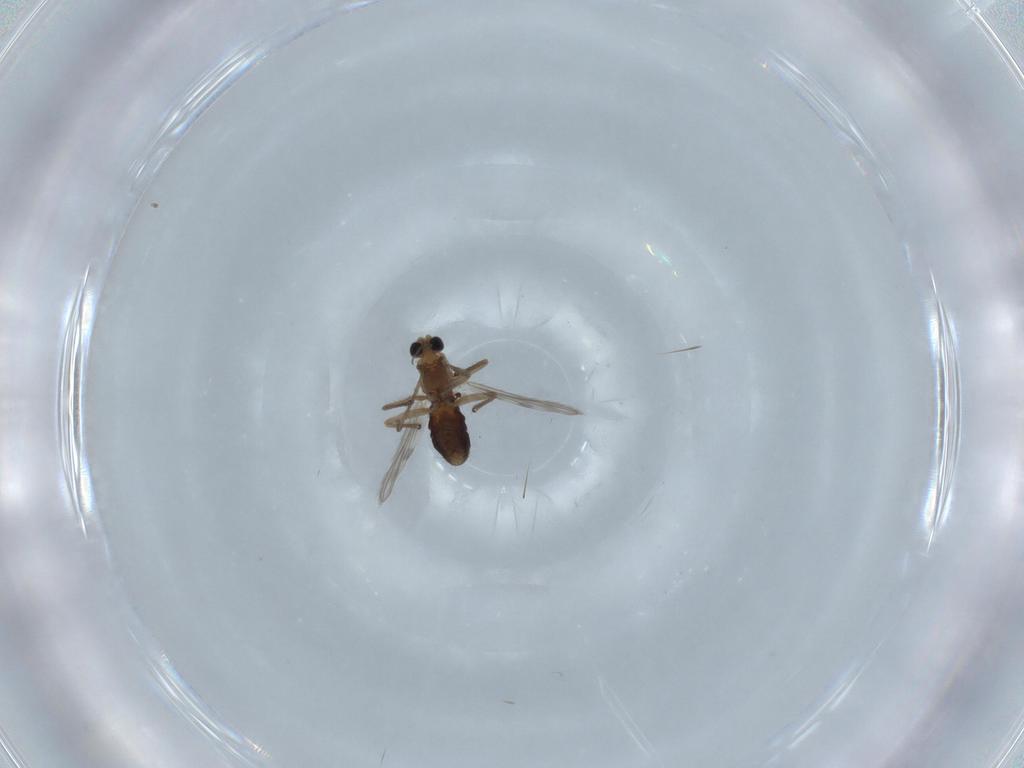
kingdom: Animalia
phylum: Arthropoda
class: Insecta
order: Diptera
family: Chironomidae
